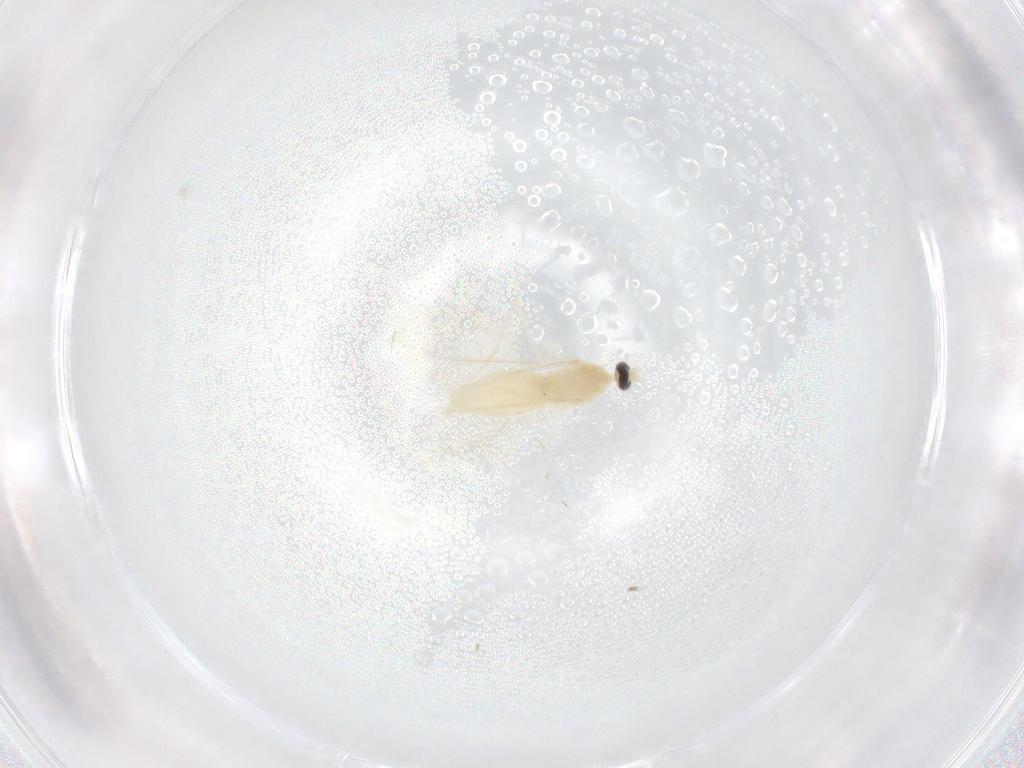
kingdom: Animalia
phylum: Arthropoda
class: Insecta
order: Diptera
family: Cecidomyiidae
